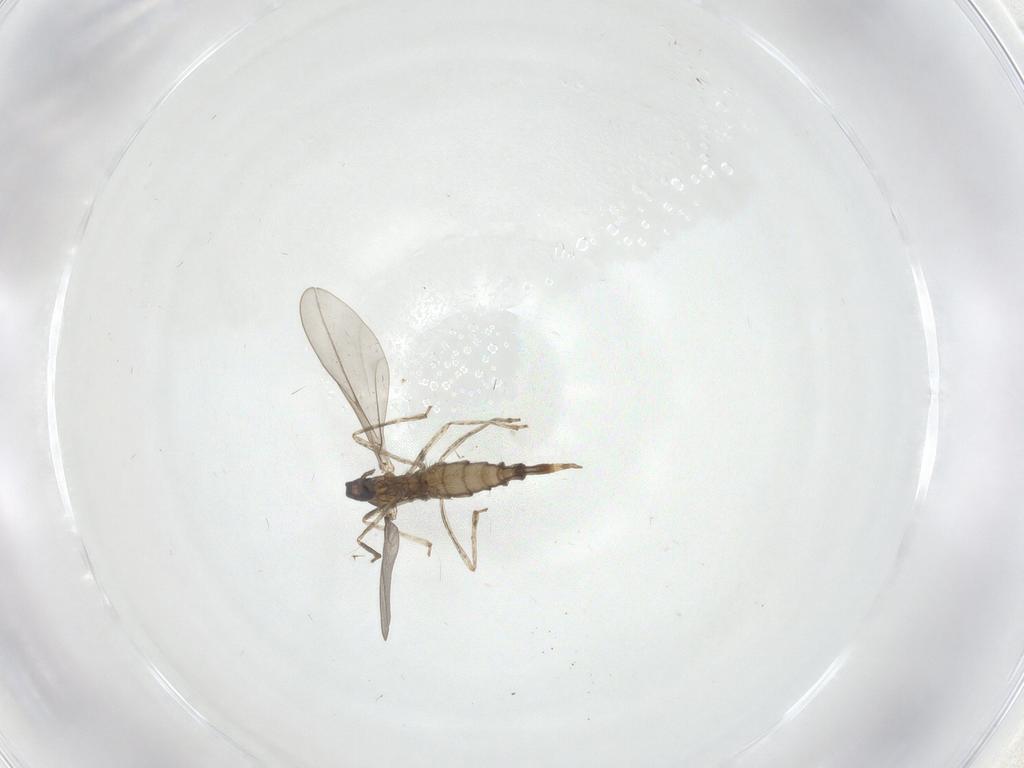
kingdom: Animalia
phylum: Arthropoda
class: Insecta
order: Diptera
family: Cecidomyiidae
